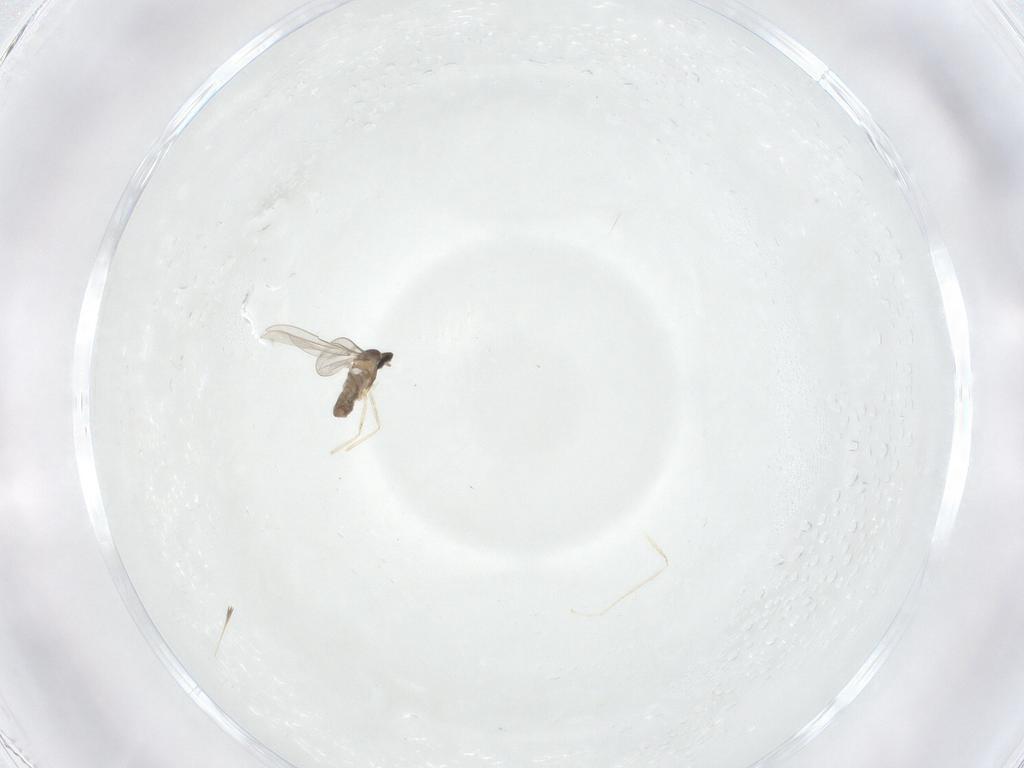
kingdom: Animalia
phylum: Arthropoda
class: Insecta
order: Diptera
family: Cecidomyiidae
